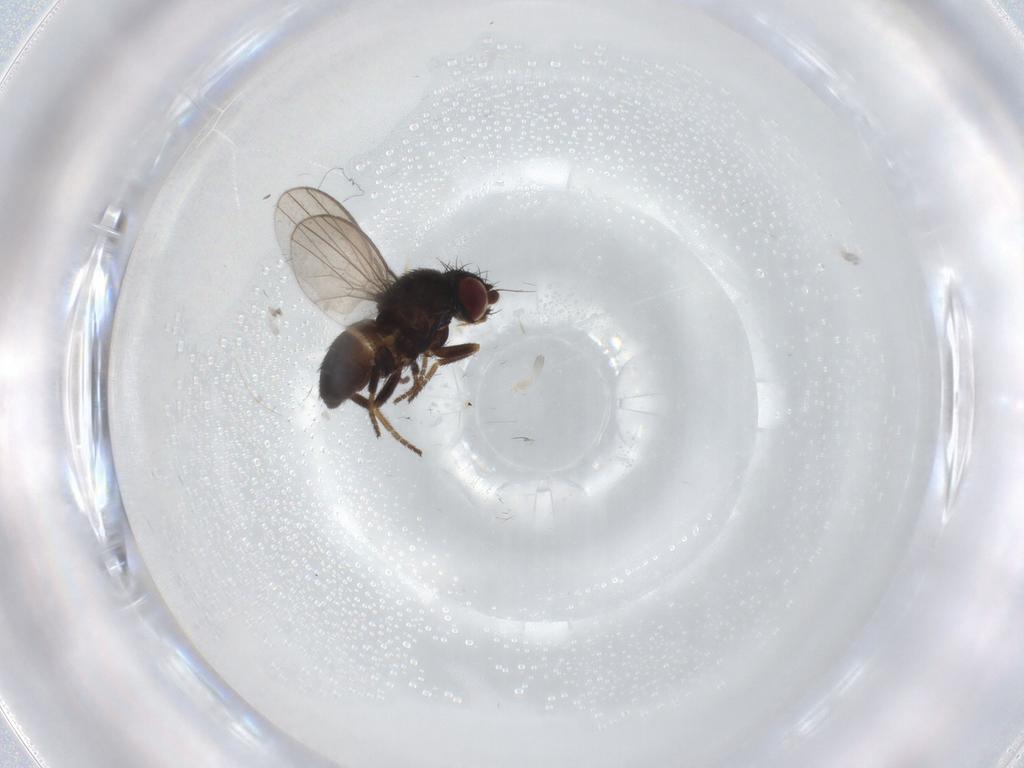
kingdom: Animalia
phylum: Arthropoda
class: Insecta
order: Diptera
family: Milichiidae
